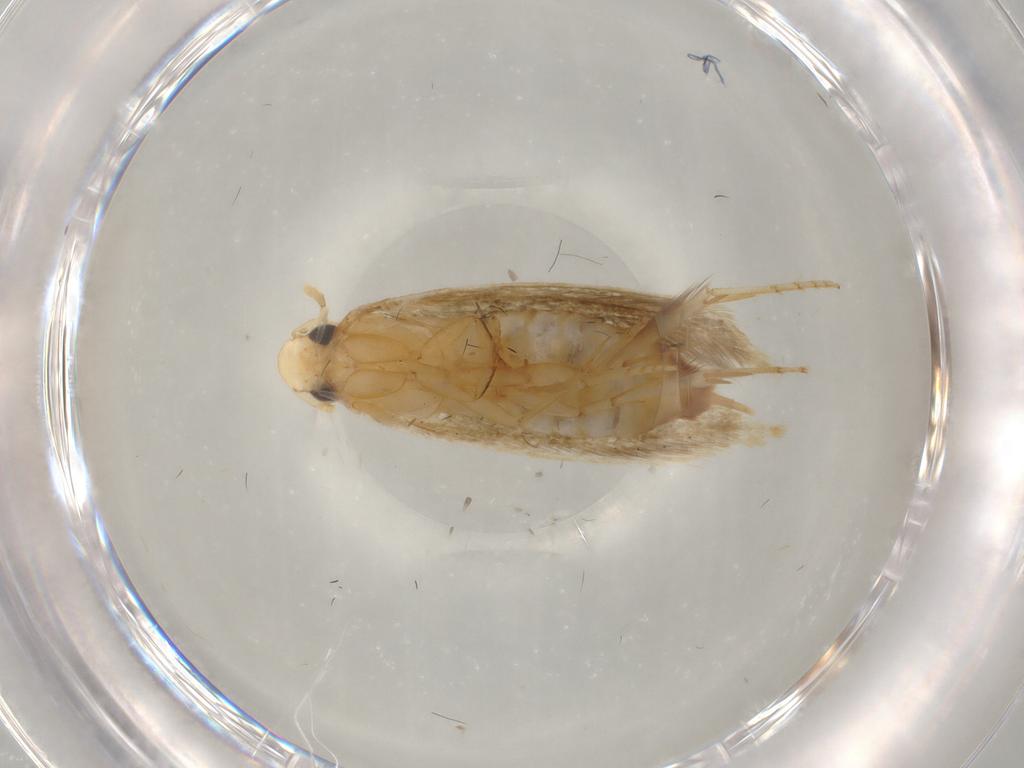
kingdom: Animalia
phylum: Arthropoda
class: Insecta
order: Lepidoptera
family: Tineidae
